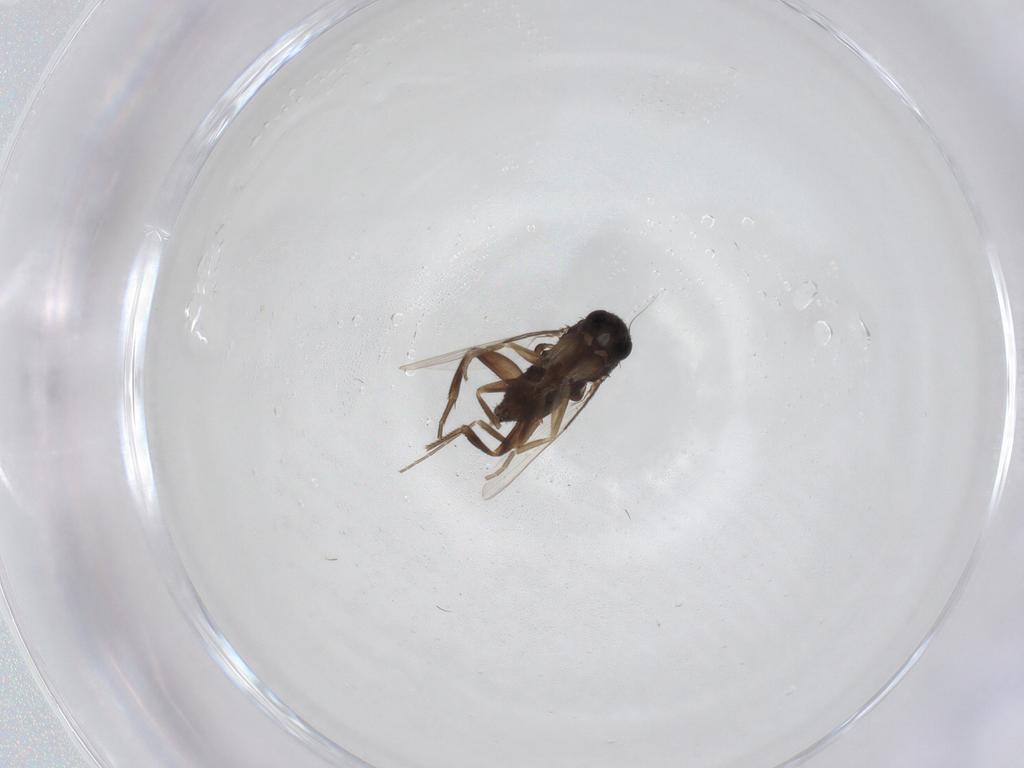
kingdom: Animalia
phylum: Arthropoda
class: Insecta
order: Diptera
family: Phoridae
